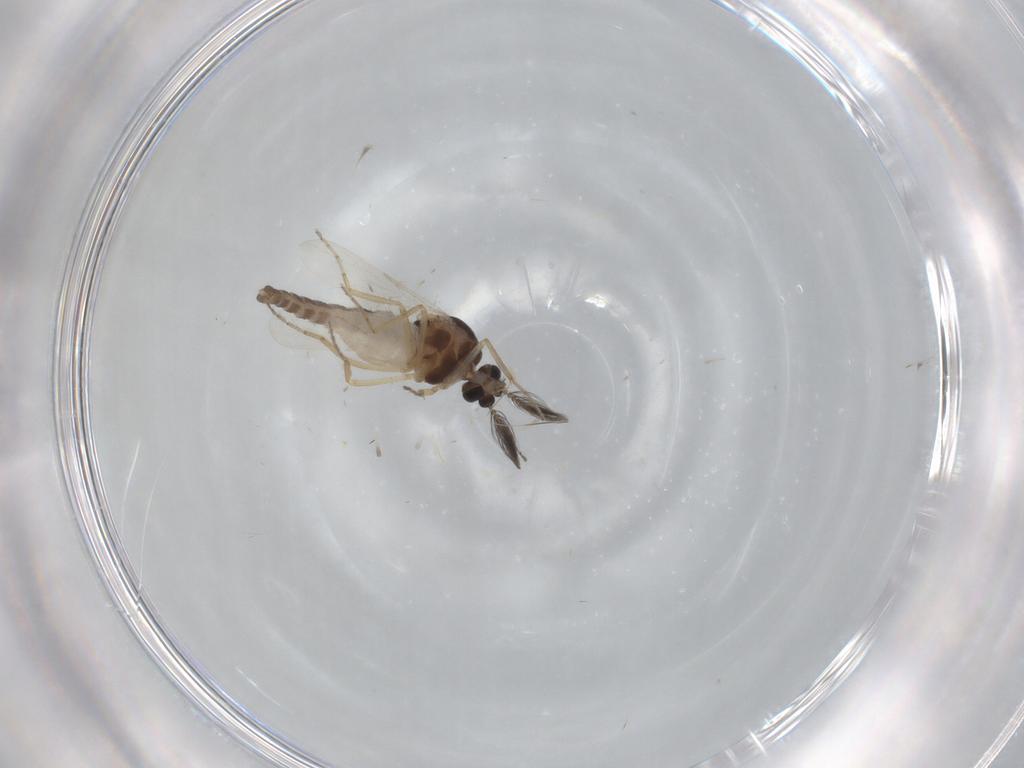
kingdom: Animalia
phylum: Arthropoda
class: Insecta
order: Diptera
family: Ceratopogonidae
